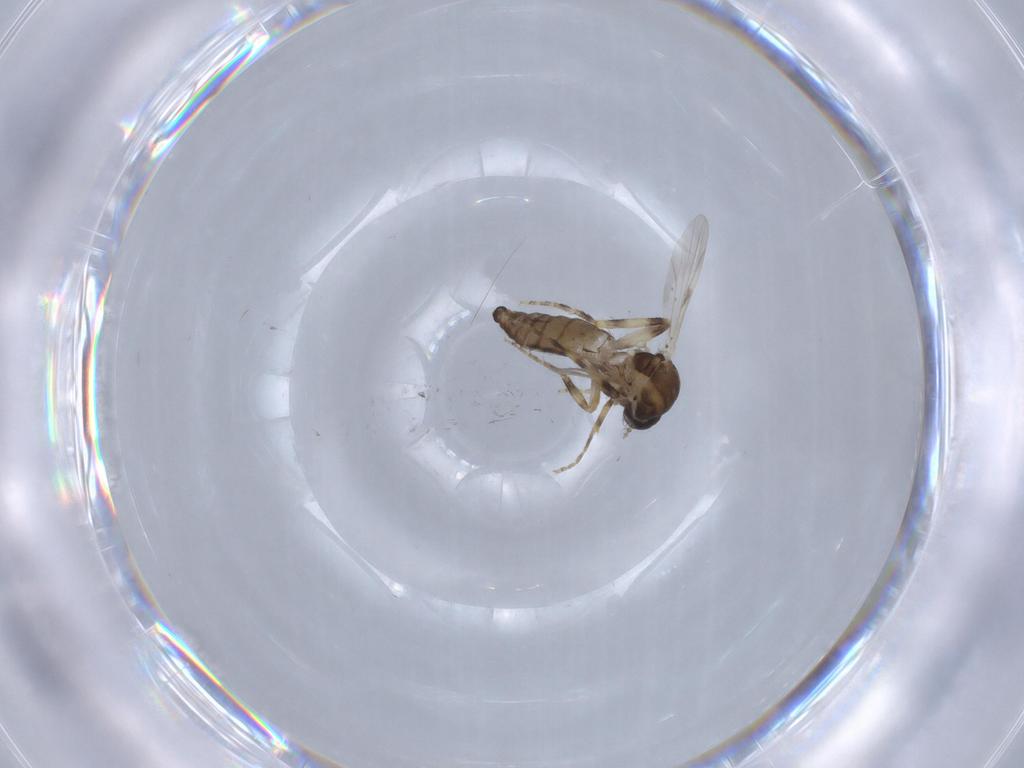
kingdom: Animalia
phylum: Arthropoda
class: Insecta
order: Diptera
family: Ceratopogonidae
